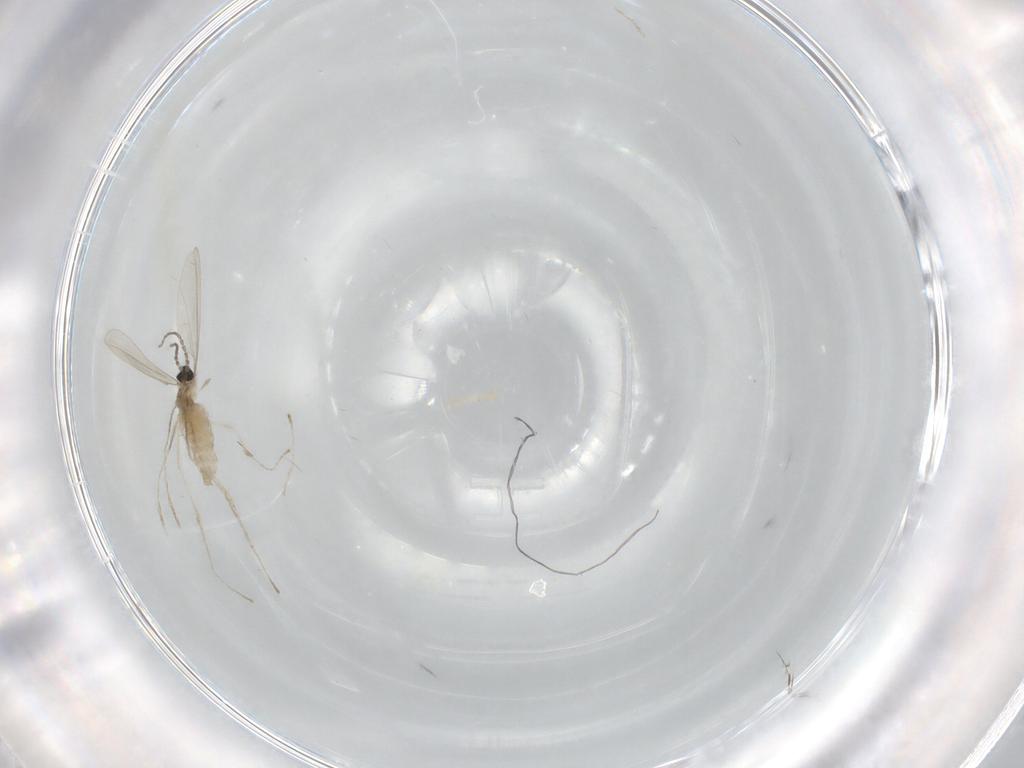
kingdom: Animalia
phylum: Arthropoda
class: Insecta
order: Diptera
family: Cecidomyiidae
